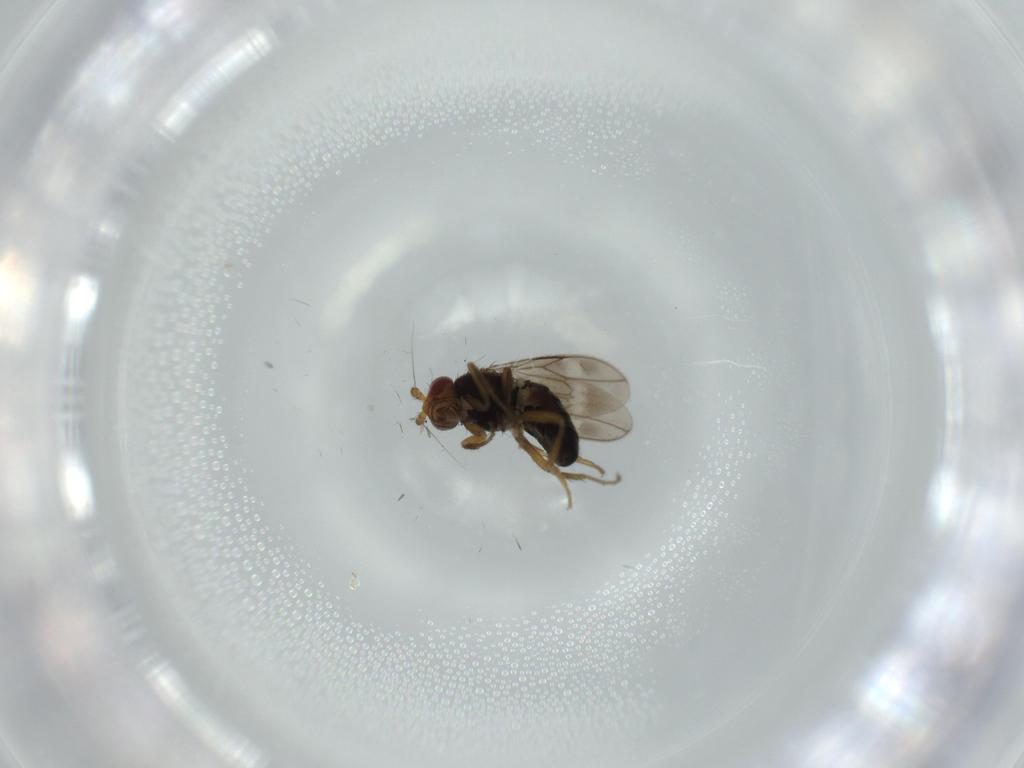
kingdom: Animalia
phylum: Arthropoda
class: Insecta
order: Diptera
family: Sphaeroceridae
